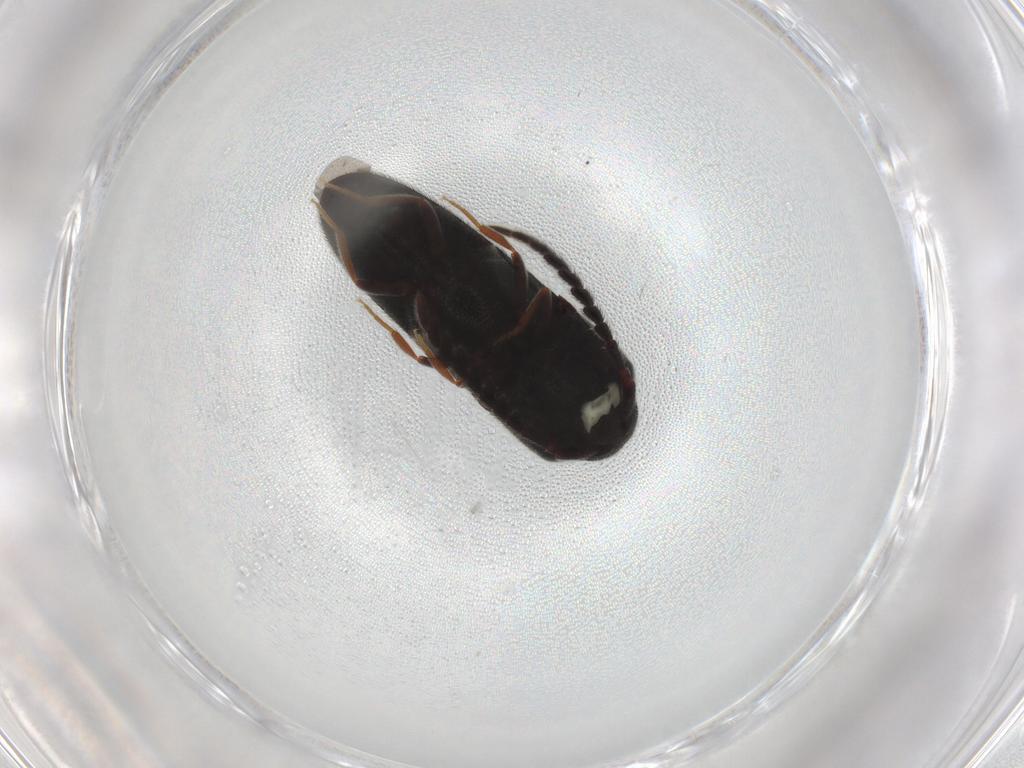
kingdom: Animalia
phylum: Arthropoda
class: Insecta
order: Coleoptera
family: Eucnemidae
